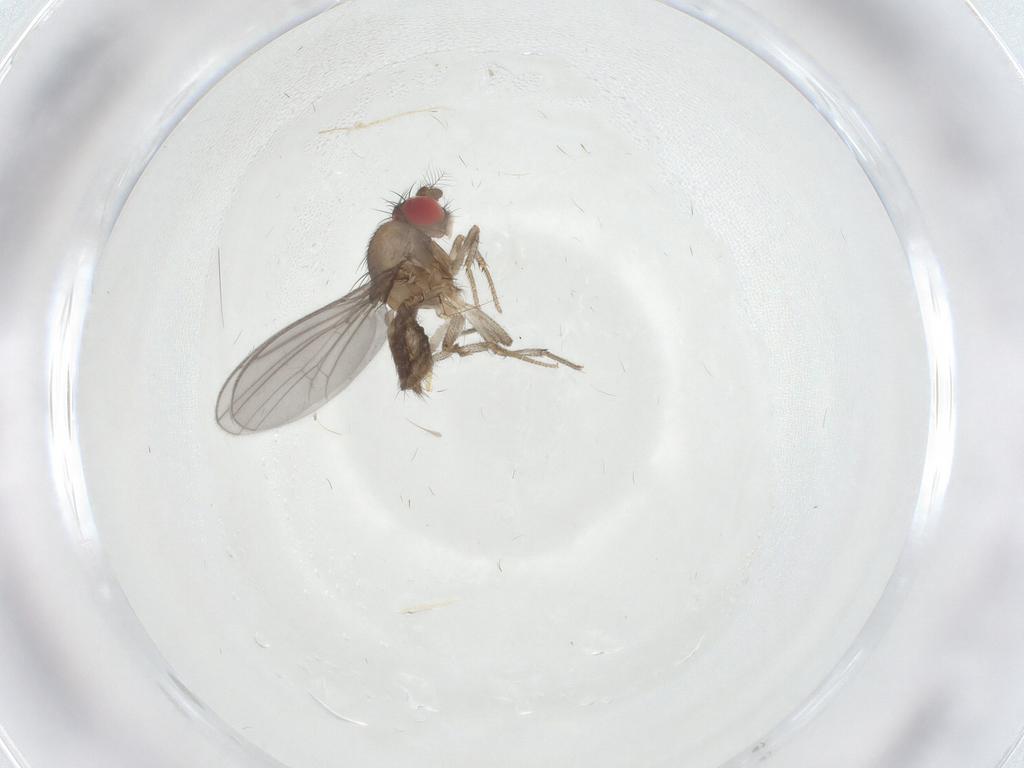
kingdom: Animalia
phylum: Arthropoda
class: Insecta
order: Diptera
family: Drosophilidae
